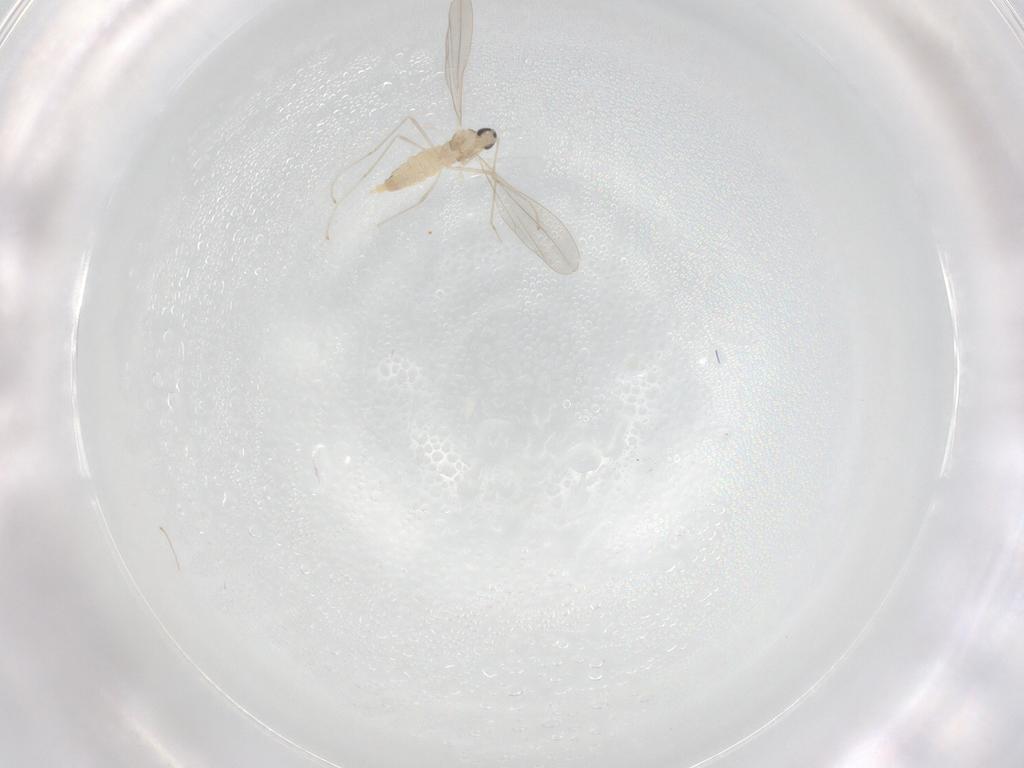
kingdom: Animalia
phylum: Arthropoda
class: Insecta
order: Diptera
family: Cecidomyiidae
